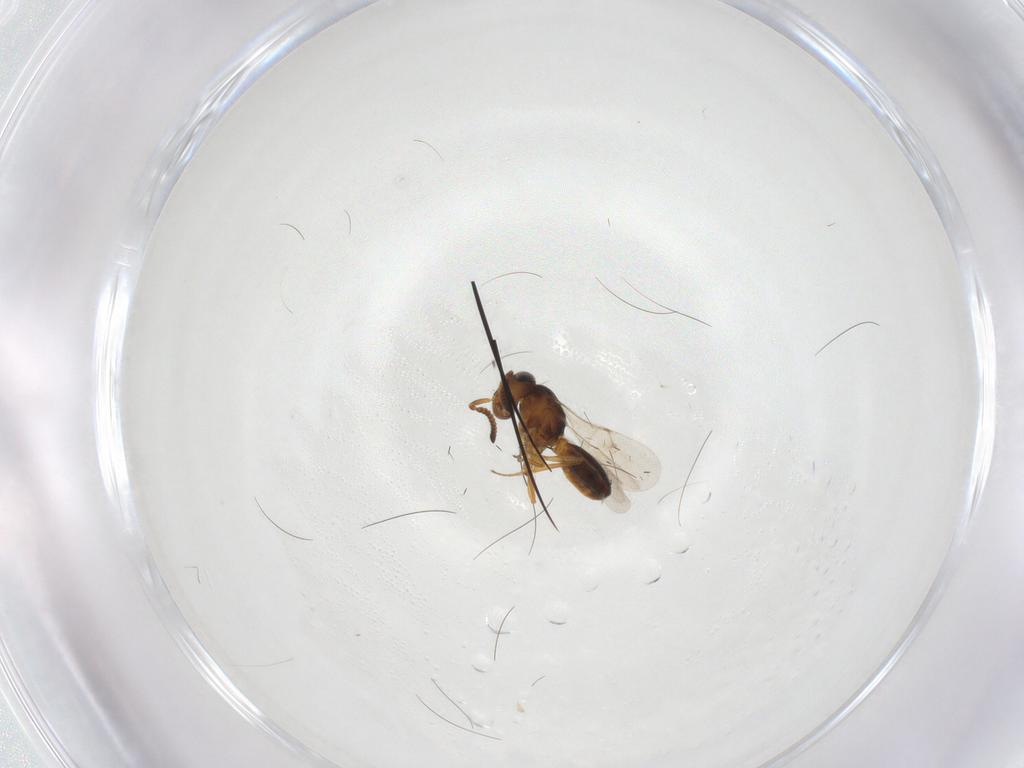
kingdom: Animalia
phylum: Arthropoda
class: Insecta
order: Hymenoptera
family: Scelionidae
